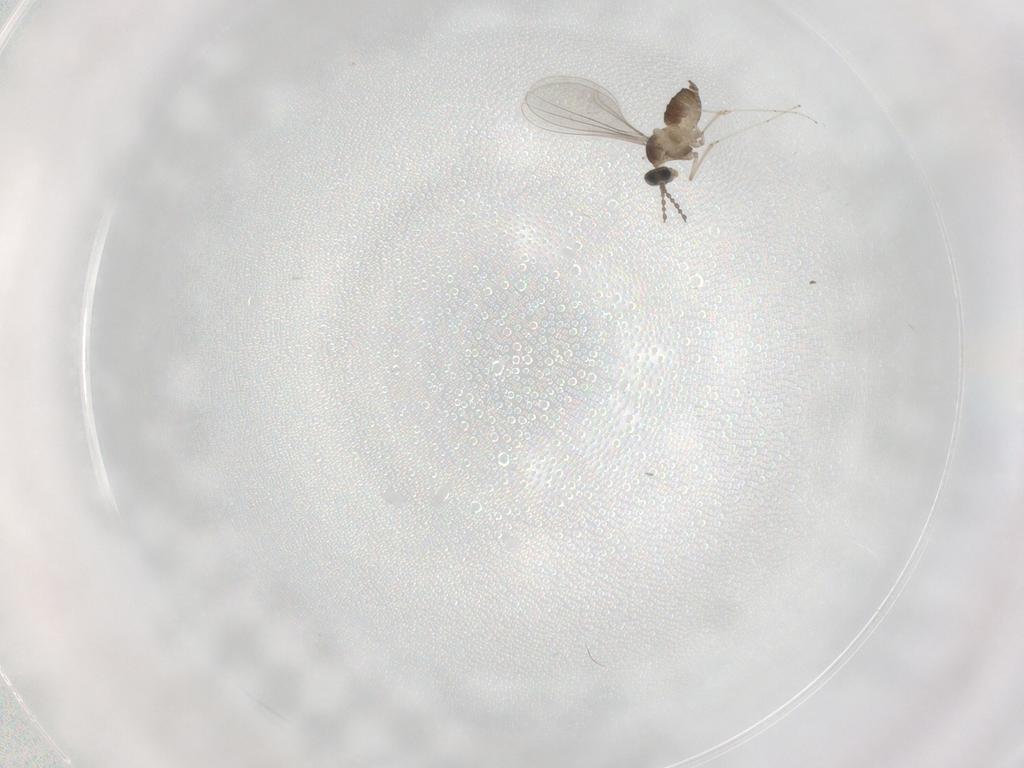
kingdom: Animalia
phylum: Arthropoda
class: Insecta
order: Diptera
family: Cecidomyiidae
